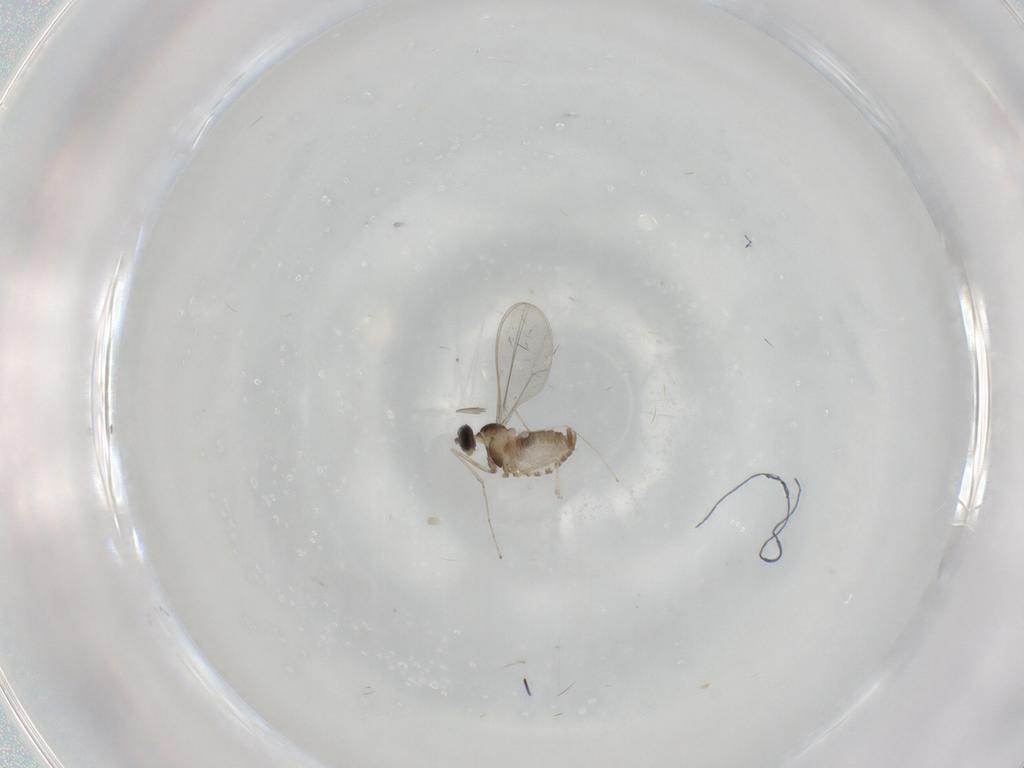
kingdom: Animalia
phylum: Arthropoda
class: Insecta
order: Diptera
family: Cecidomyiidae
